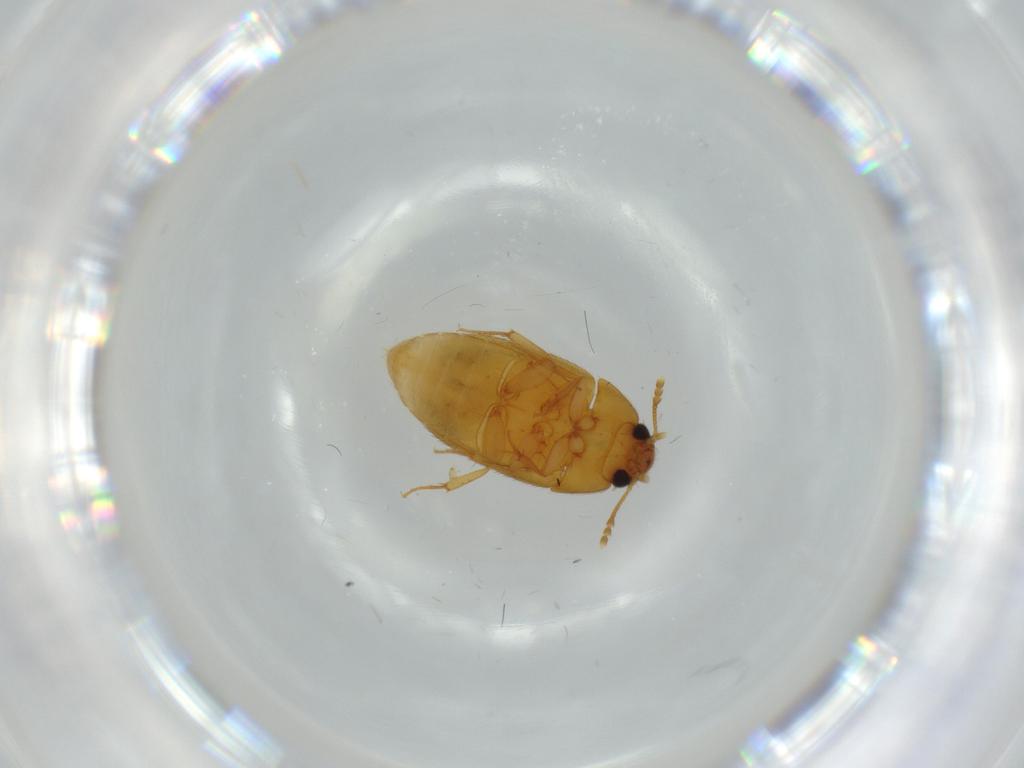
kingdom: Animalia
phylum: Arthropoda
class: Insecta
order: Coleoptera
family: Mycetophagidae
